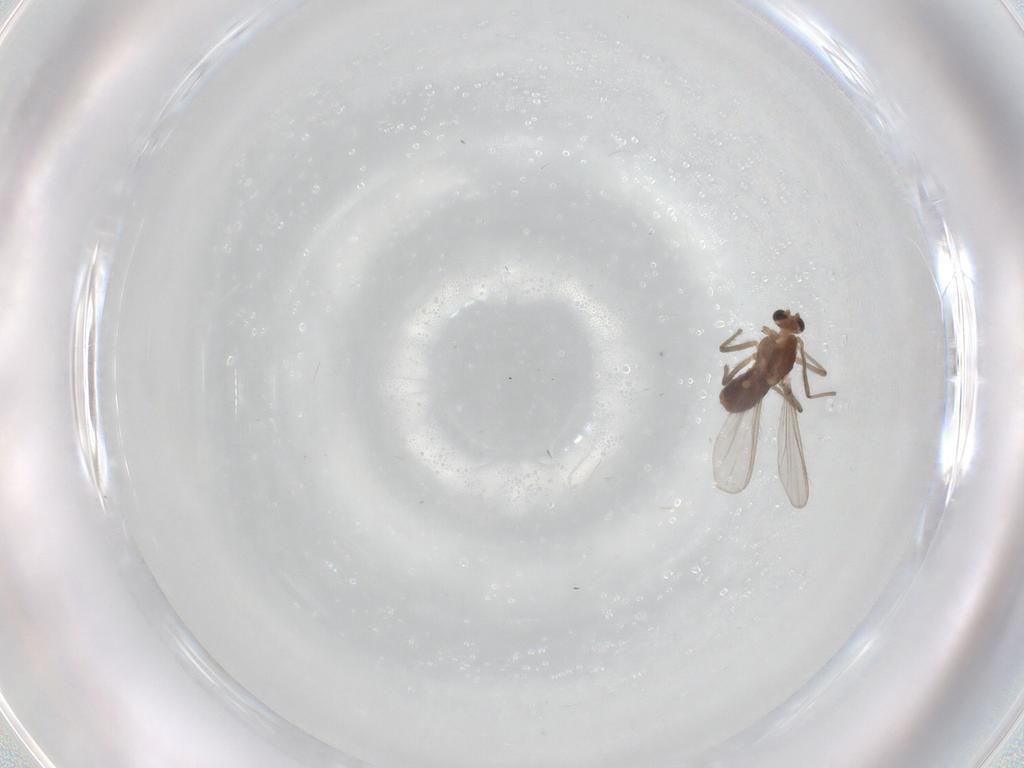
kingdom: Animalia
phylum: Arthropoda
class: Insecta
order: Diptera
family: Chironomidae
